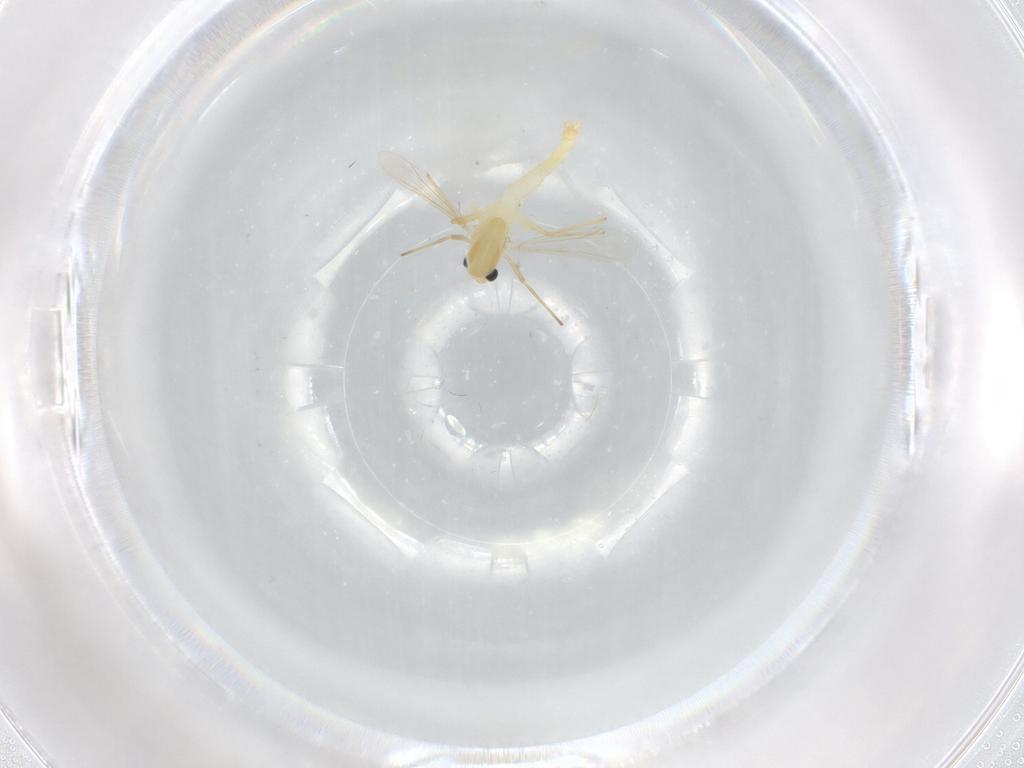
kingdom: Animalia
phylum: Arthropoda
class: Insecta
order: Diptera
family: Chironomidae
